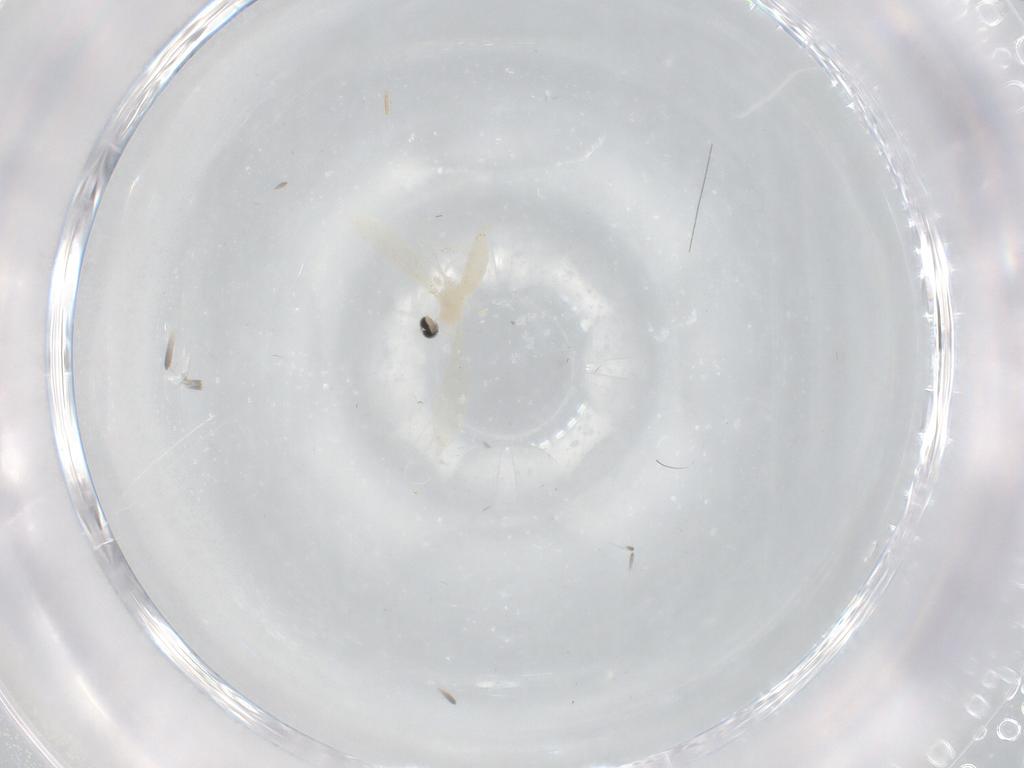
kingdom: Animalia
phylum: Arthropoda
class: Insecta
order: Diptera
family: Cecidomyiidae
